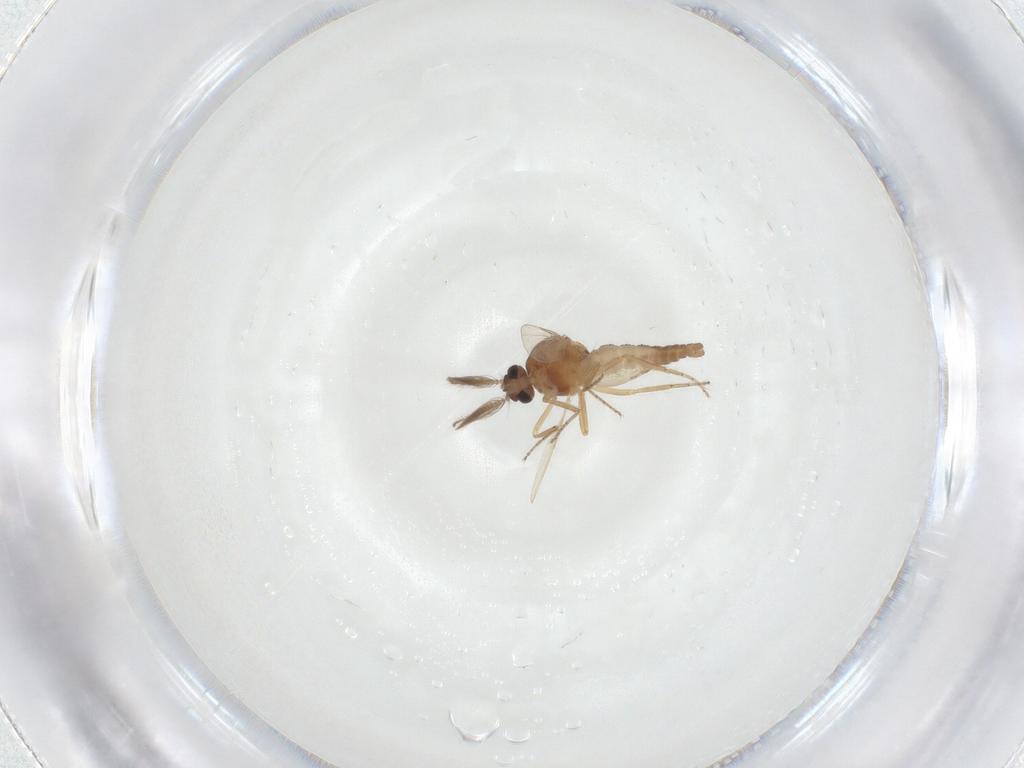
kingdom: Animalia
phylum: Arthropoda
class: Insecta
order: Diptera
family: Ceratopogonidae
